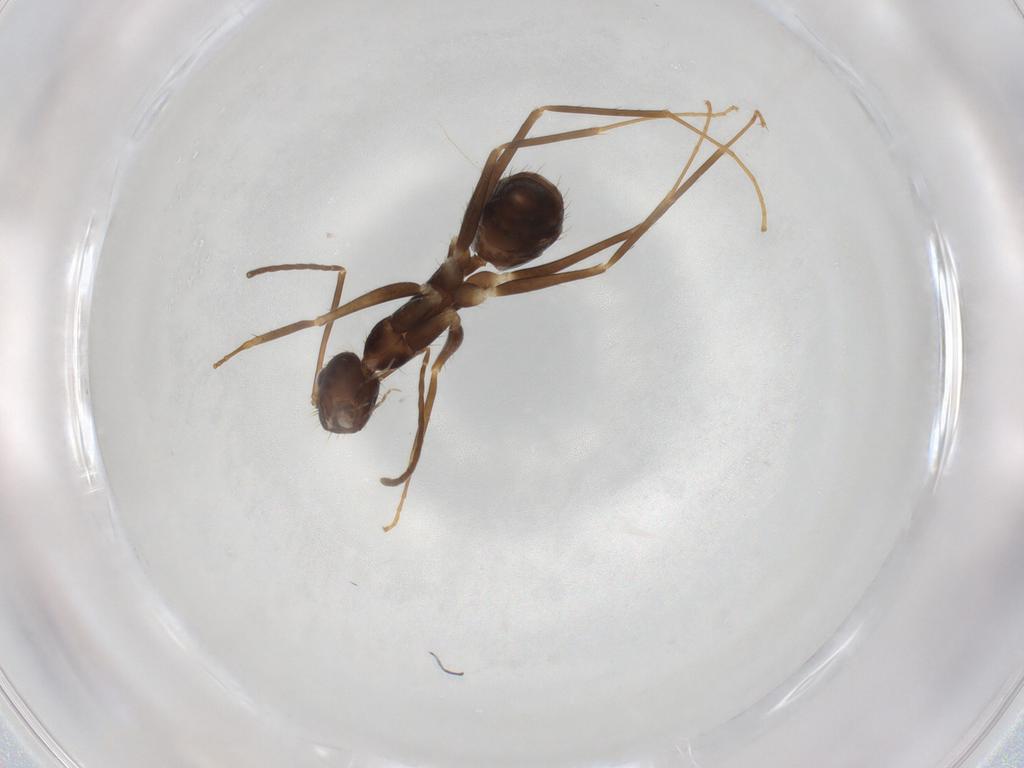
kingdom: Animalia
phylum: Arthropoda
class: Insecta
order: Hymenoptera
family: Formicidae
